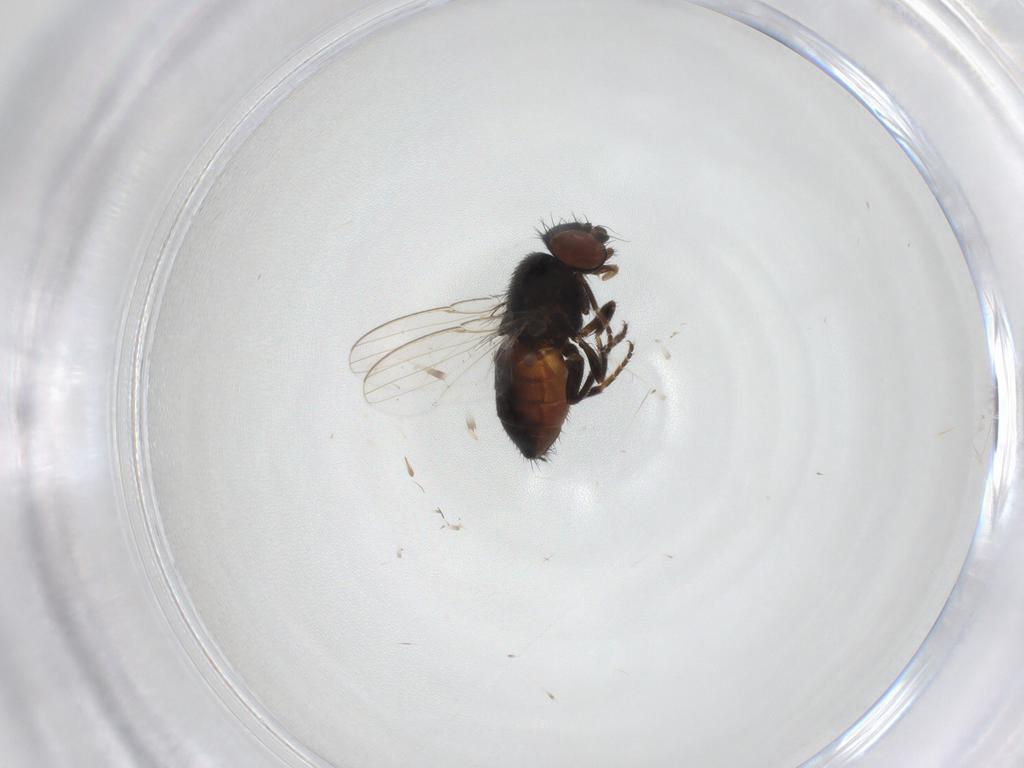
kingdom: Animalia
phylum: Arthropoda
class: Insecta
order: Diptera
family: Chloropidae
